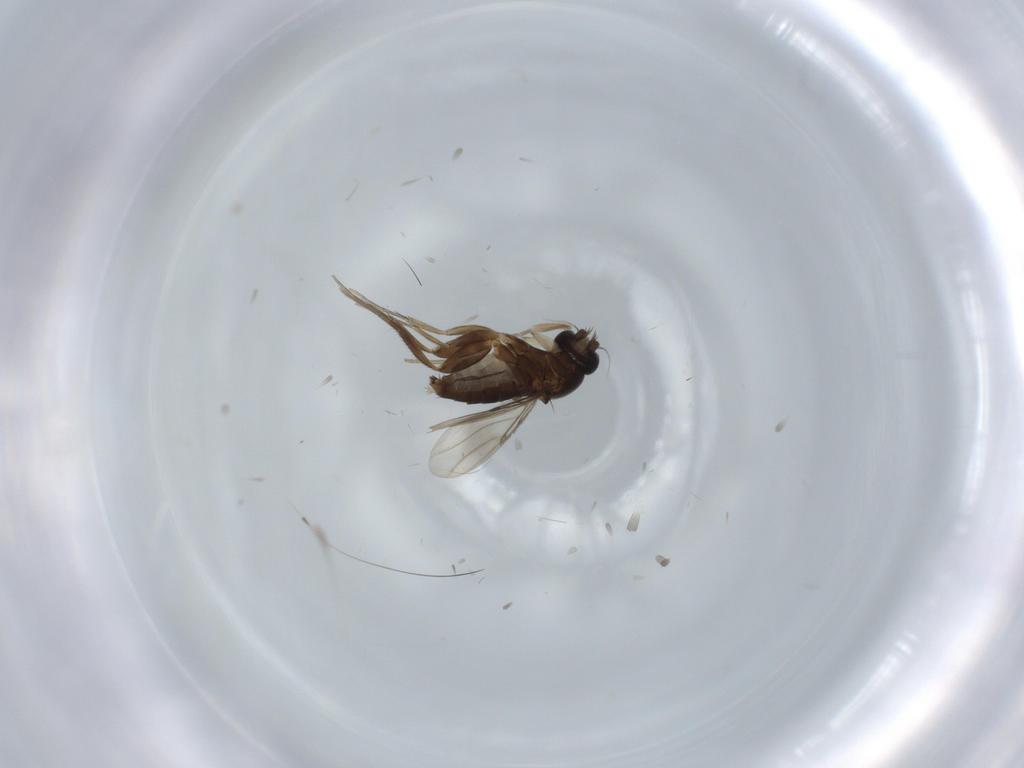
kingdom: Animalia
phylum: Arthropoda
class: Insecta
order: Diptera
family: Phoridae
